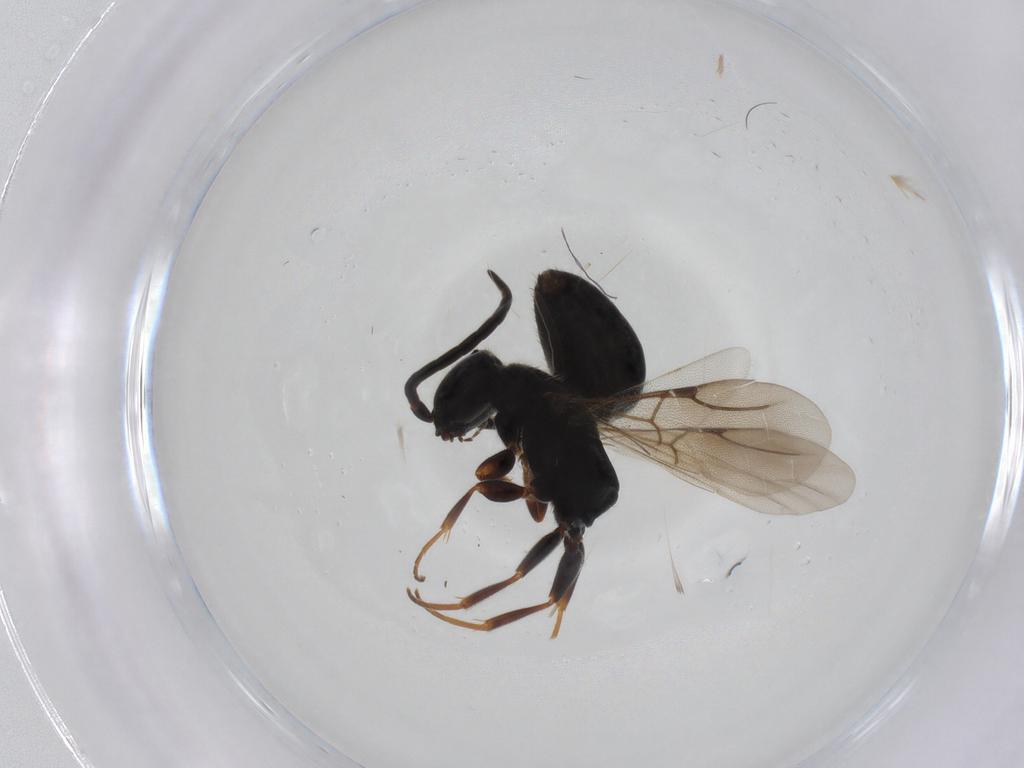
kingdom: Animalia
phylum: Arthropoda
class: Insecta
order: Hymenoptera
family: Bethylidae
